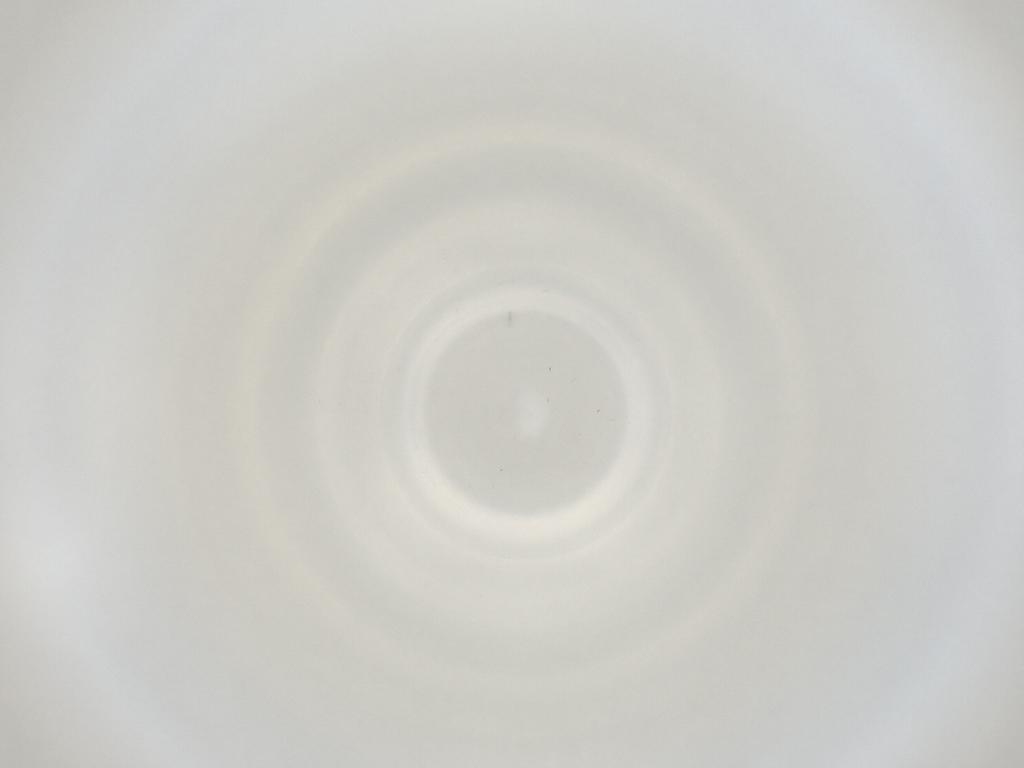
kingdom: Animalia
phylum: Arthropoda
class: Insecta
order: Diptera
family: Cecidomyiidae
